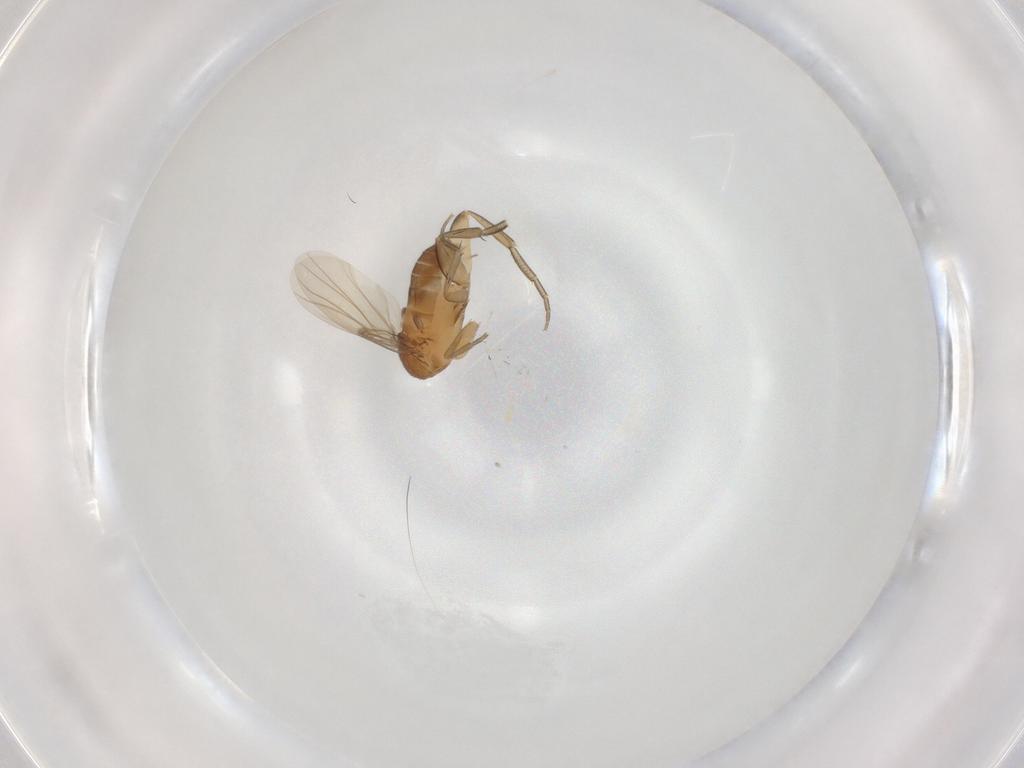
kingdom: Animalia
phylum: Arthropoda
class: Insecta
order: Diptera
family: Phoridae
